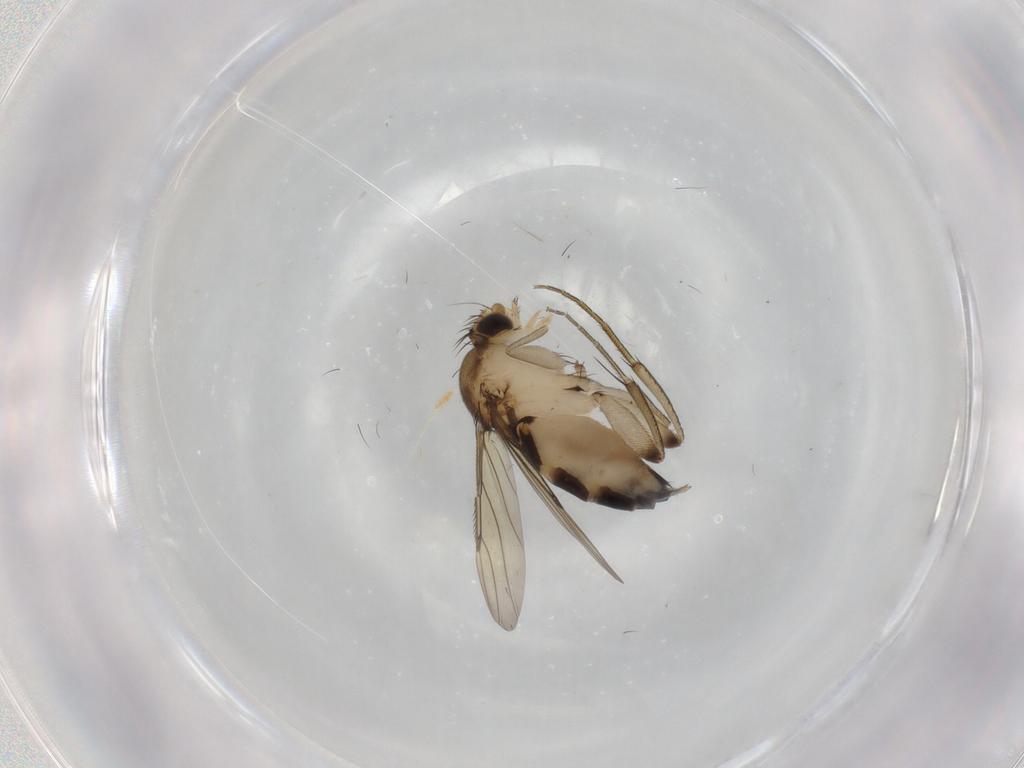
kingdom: Animalia
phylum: Arthropoda
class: Insecta
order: Diptera
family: Phoridae
